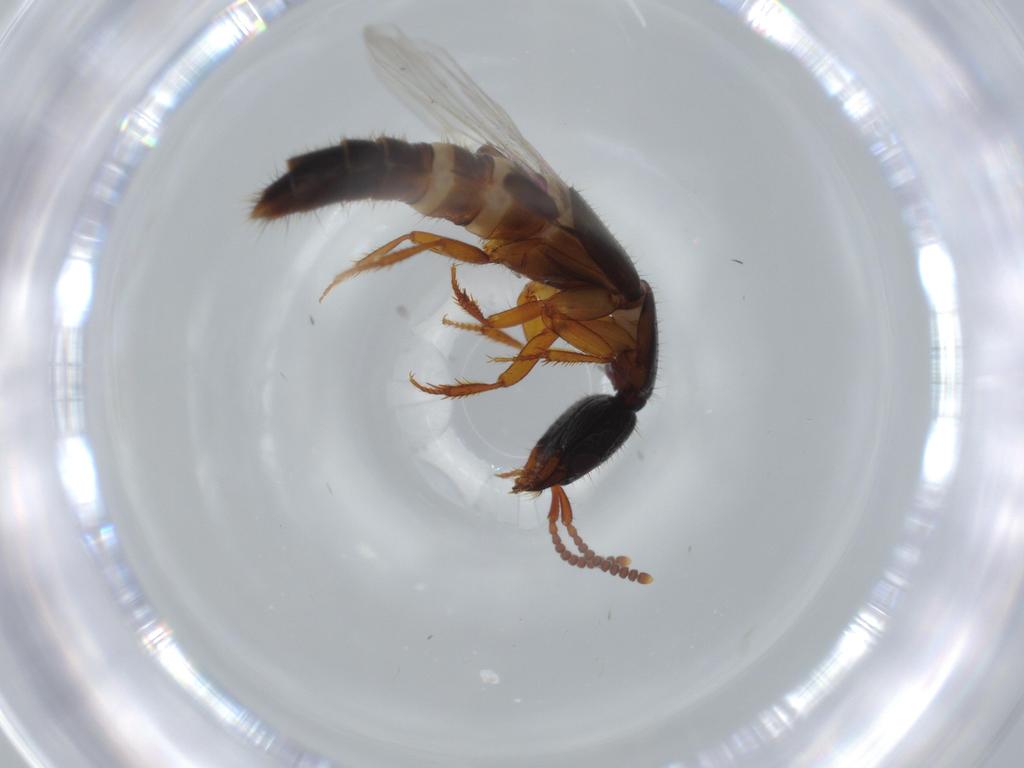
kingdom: Animalia
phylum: Arthropoda
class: Insecta
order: Coleoptera
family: Staphylinidae
